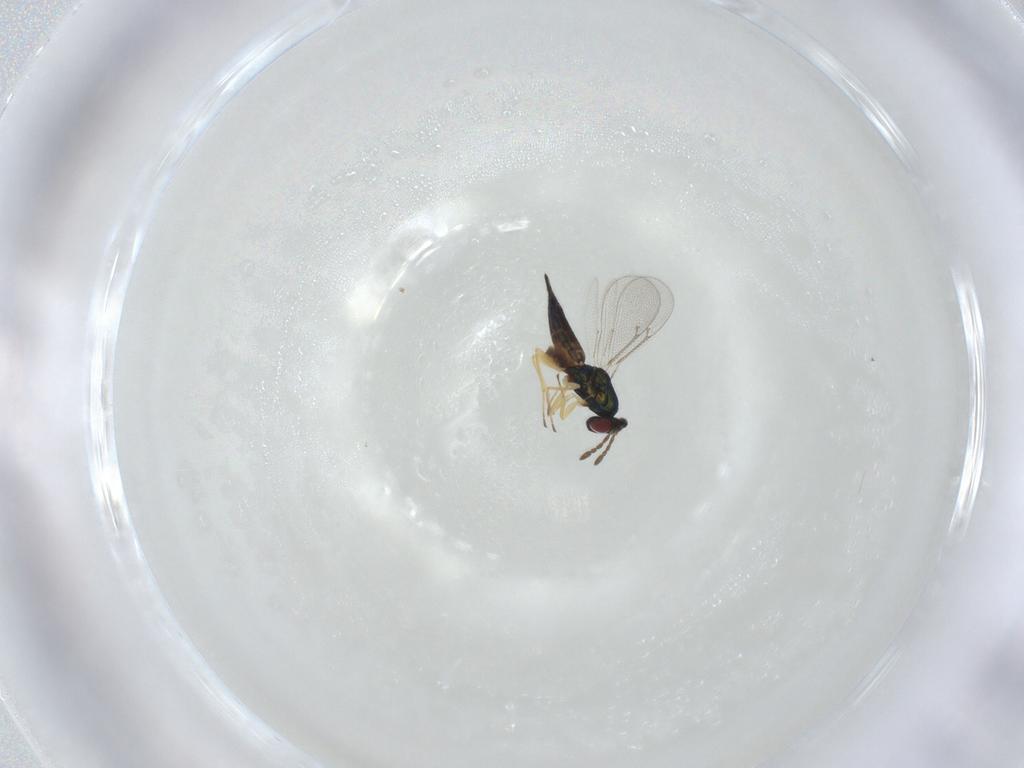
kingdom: Animalia
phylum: Arthropoda
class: Insecta
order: Hymenoptera
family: Eulophidae
